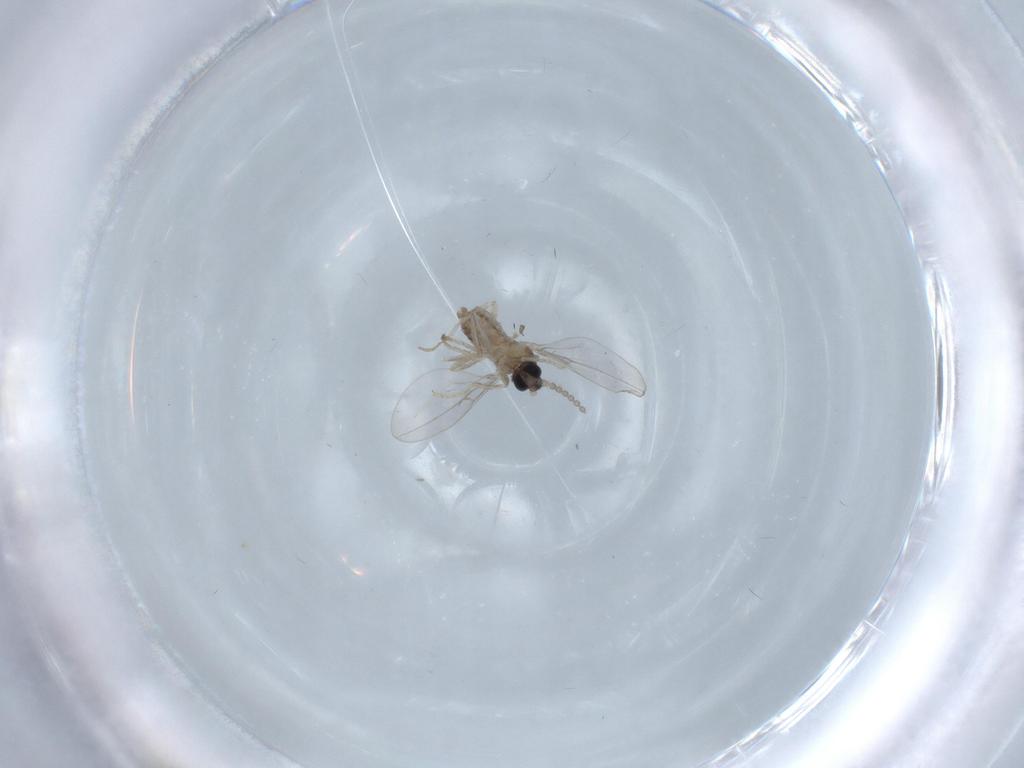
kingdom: Animalia
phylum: Arthropoda
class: Insecta
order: Diptera
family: Cecidomyiidae
